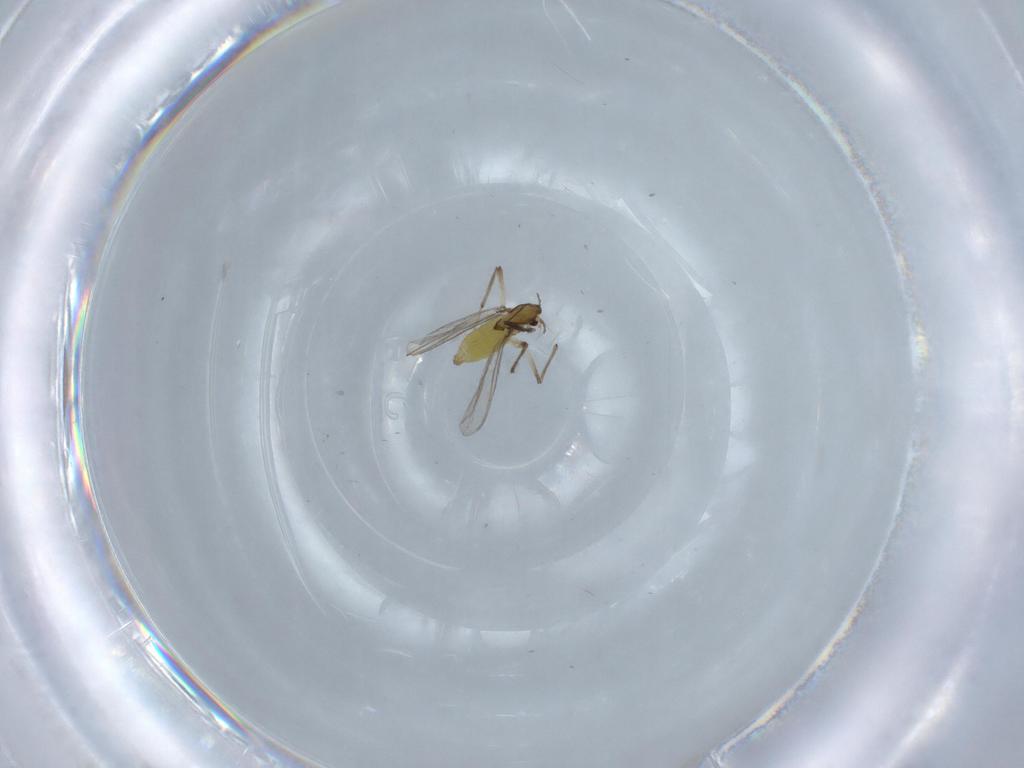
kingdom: Animalia
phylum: Arthropoda
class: Insecta
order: Diptera
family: Chironomidae
